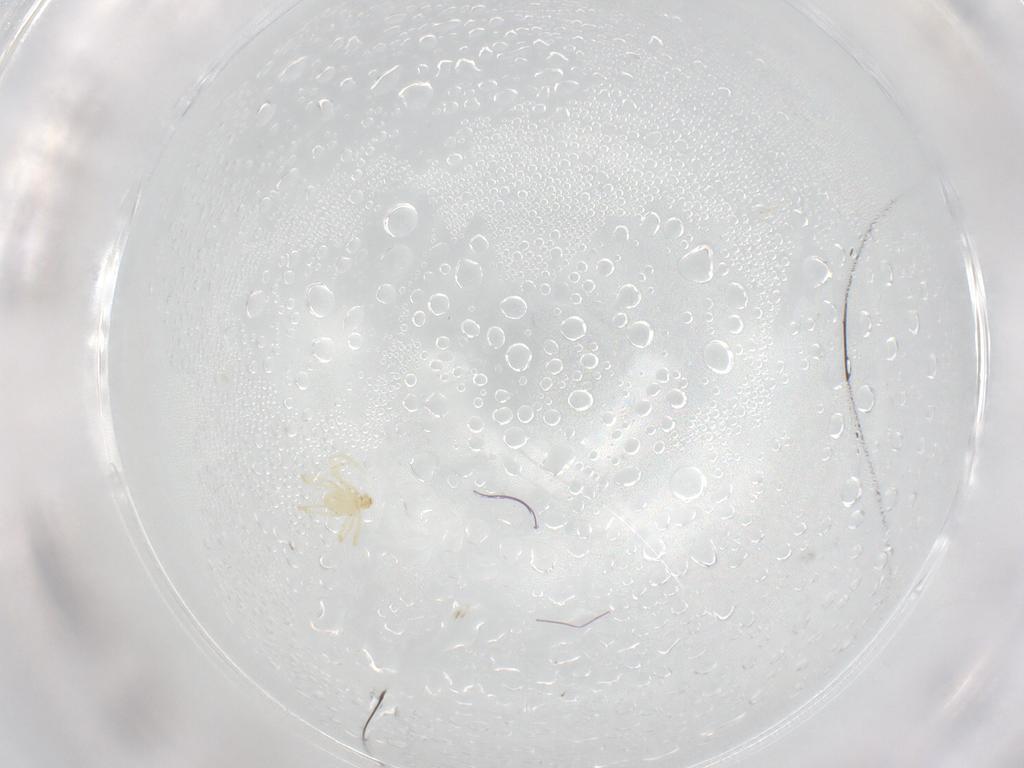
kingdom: Animalia
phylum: Arthropoda
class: Arachnida
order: Trombidiformes
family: Erythraeidae
